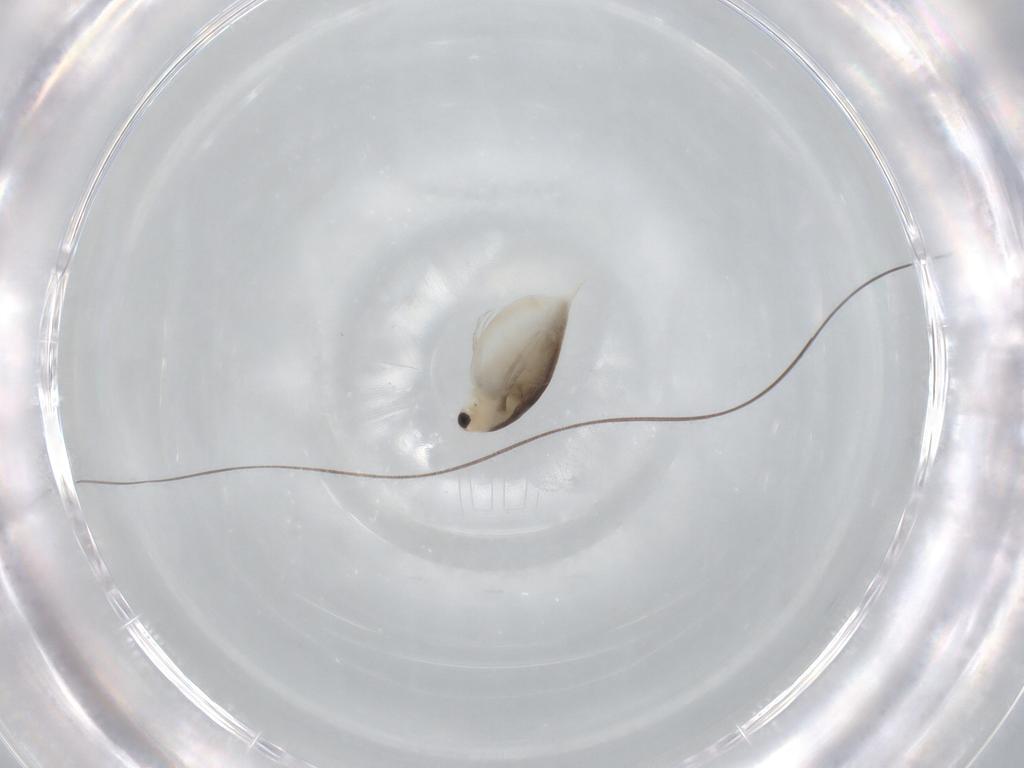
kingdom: Animalia
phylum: Arthropoda
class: Branchiopoda
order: Diplostraca
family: Daphniidae
